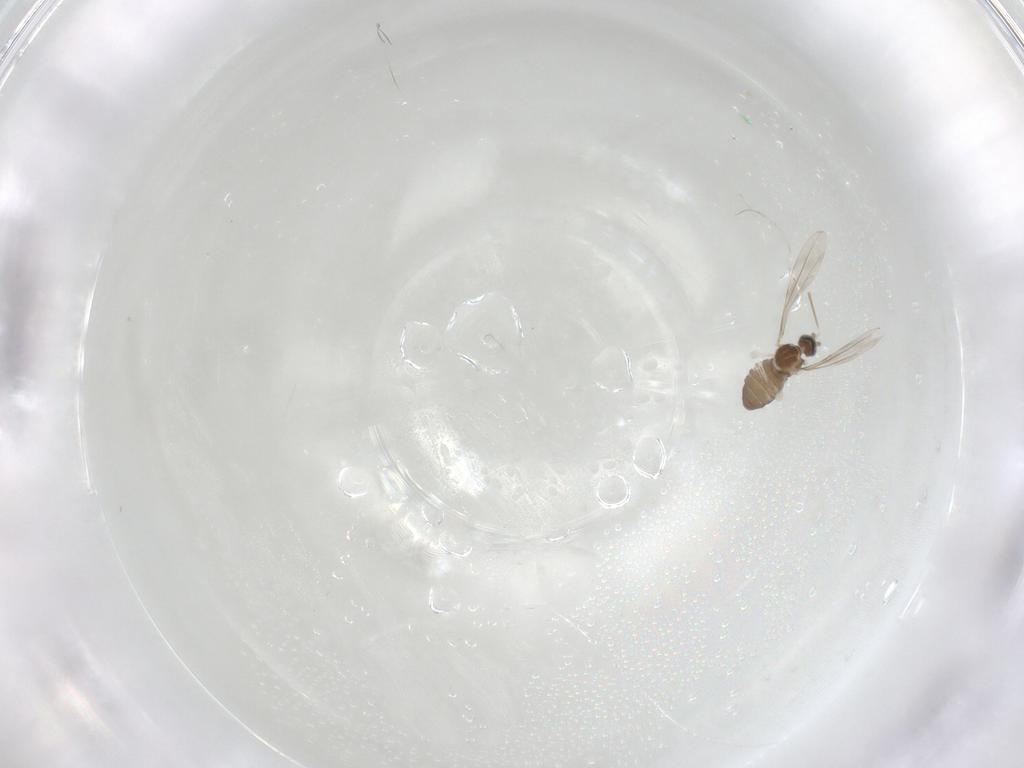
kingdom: Animalia
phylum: Arthropoda
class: Insecta
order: Diptera
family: Cecidomyiidae
